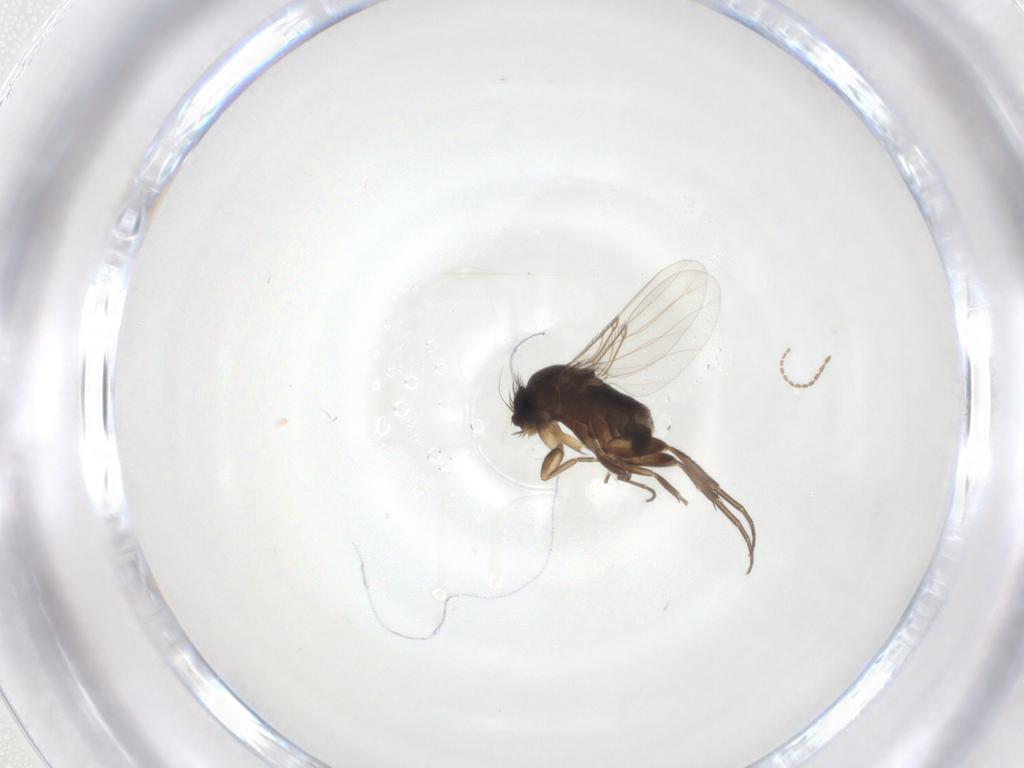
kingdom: Animalia
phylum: Arthropoda
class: Insecta
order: Diptera
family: Phoridae
